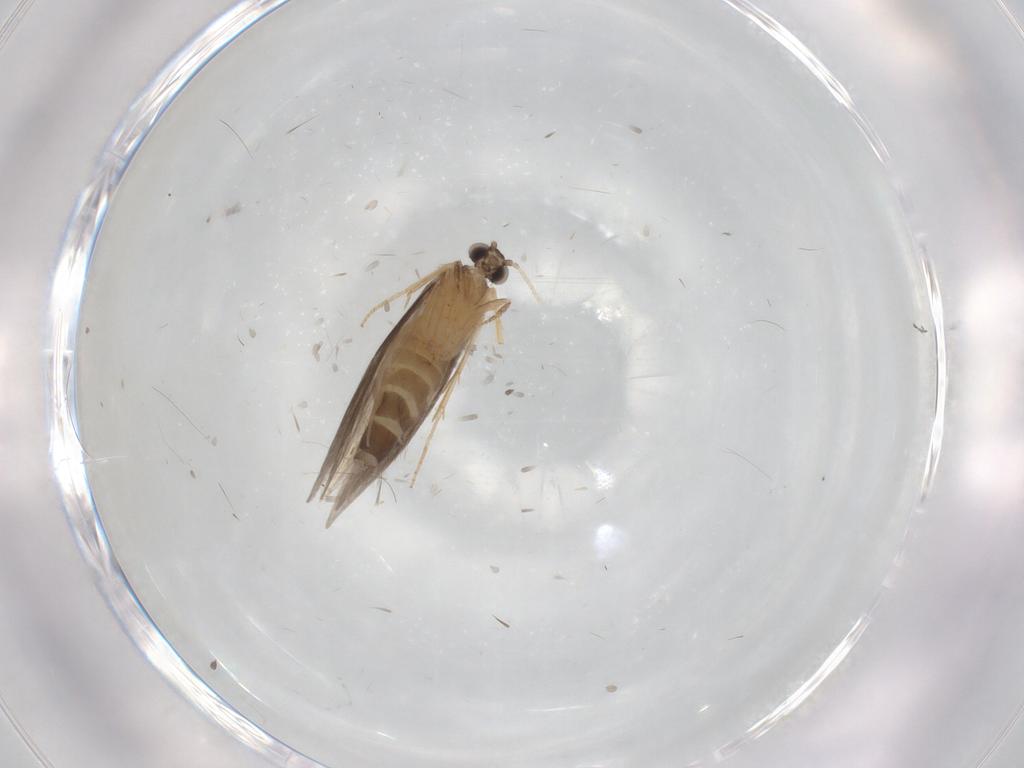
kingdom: Animalia
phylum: Arthropoda
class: Insecta
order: Trichoptera
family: Hydroptilidae
